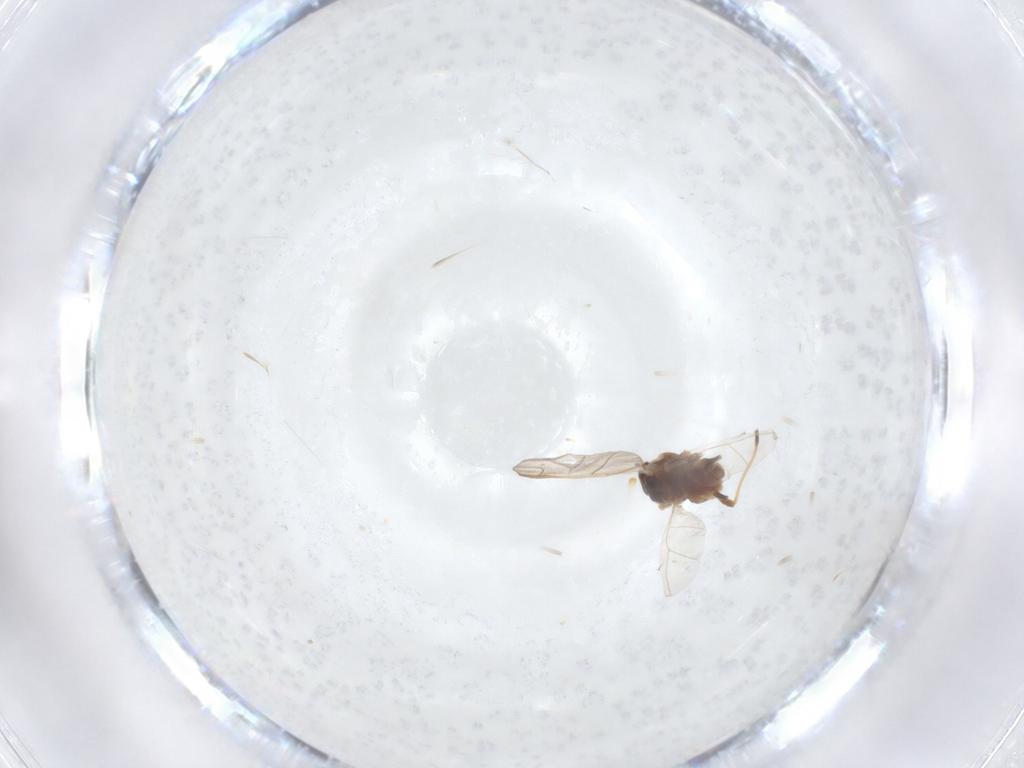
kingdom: Animalia
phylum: Arthropoda
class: Insecta
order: Hemiptera
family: Aphididae
